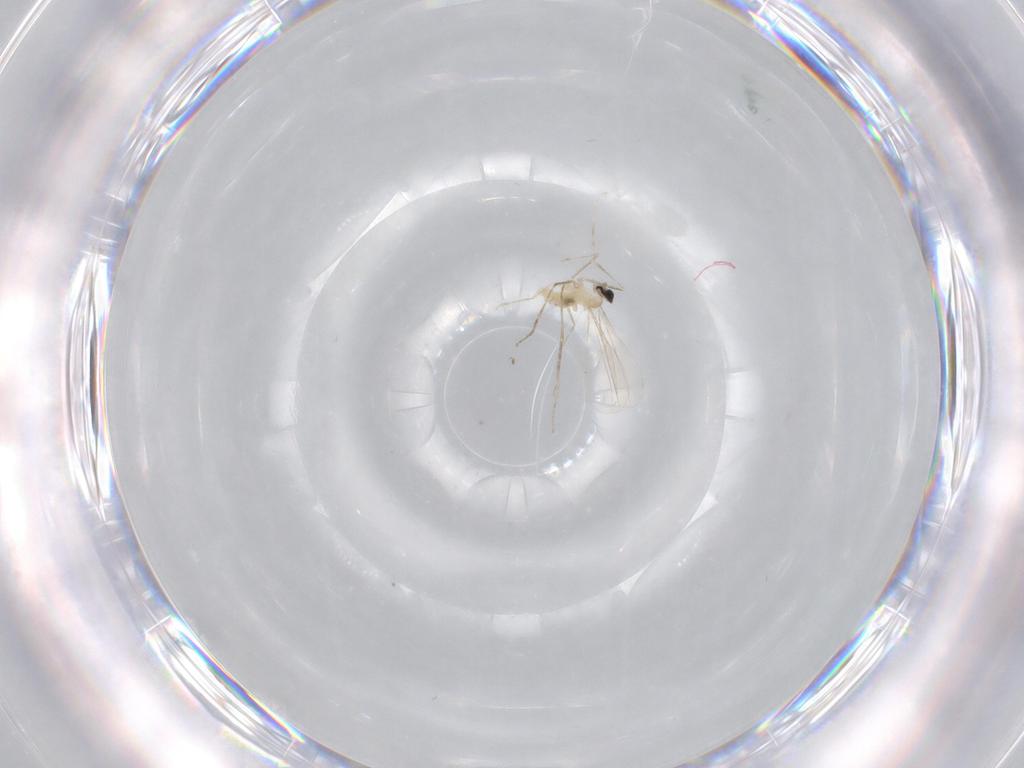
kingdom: Animalia
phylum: Arthropoda
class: Insecta
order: Diptera
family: Cecidomyiidae
